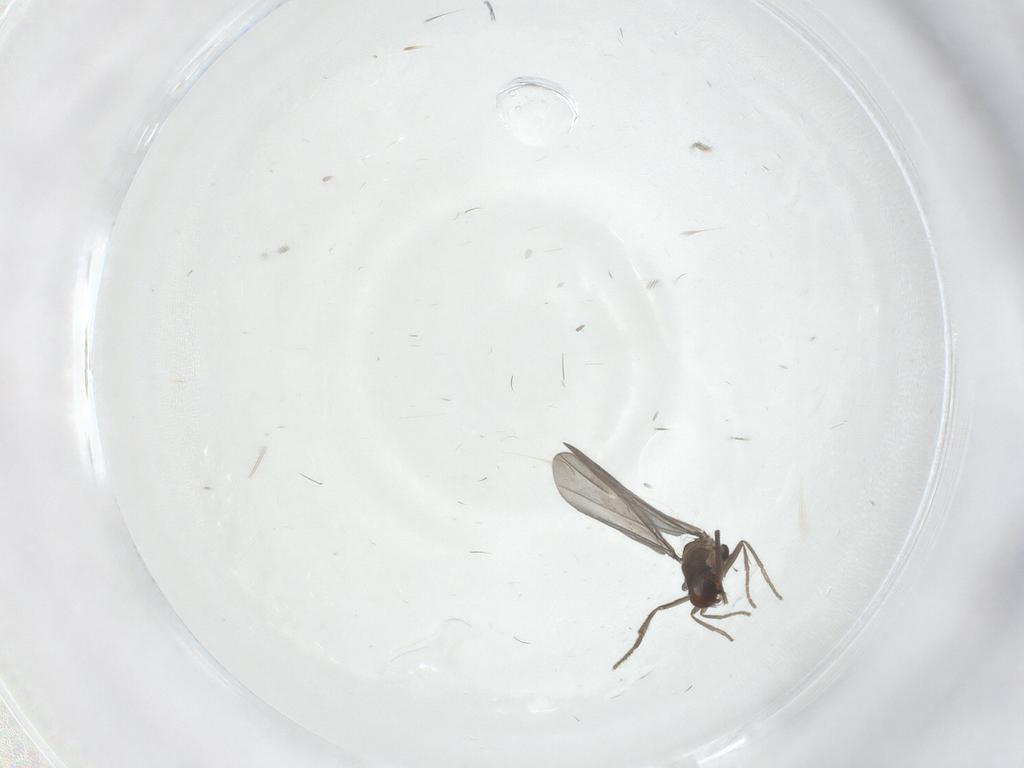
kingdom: Animalia
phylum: Arthropoda
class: Insecta
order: Diptera
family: Phoridae
